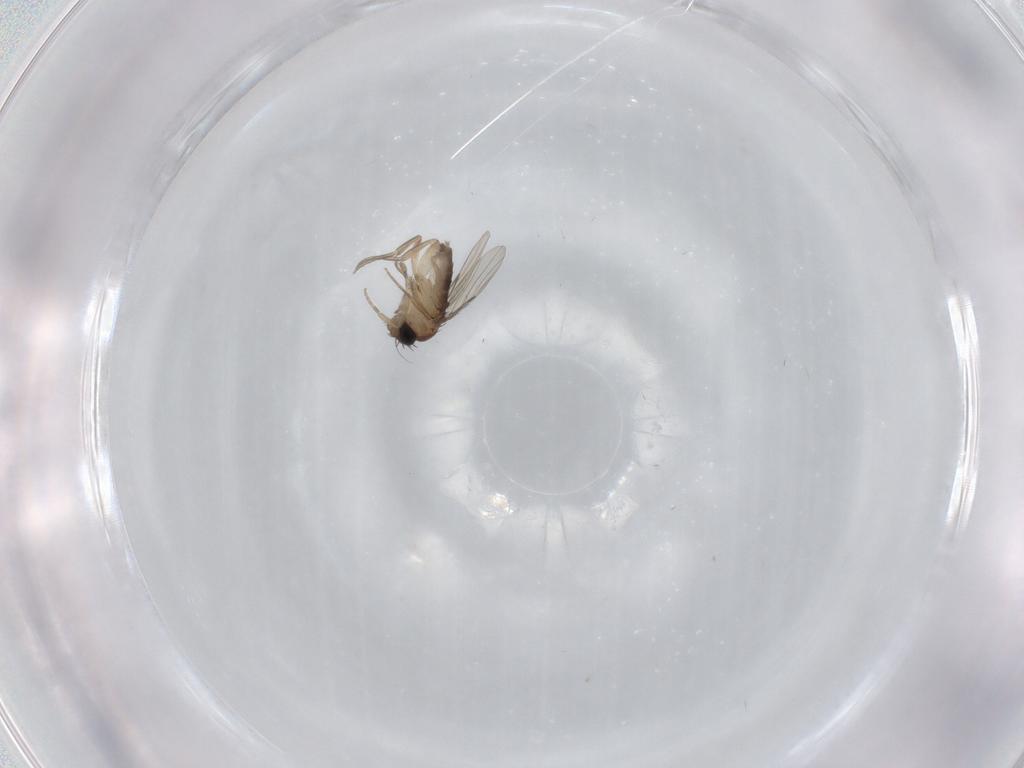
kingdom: Animalia
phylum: Arthropoda
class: Insecta
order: Diptera
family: Phoridae
